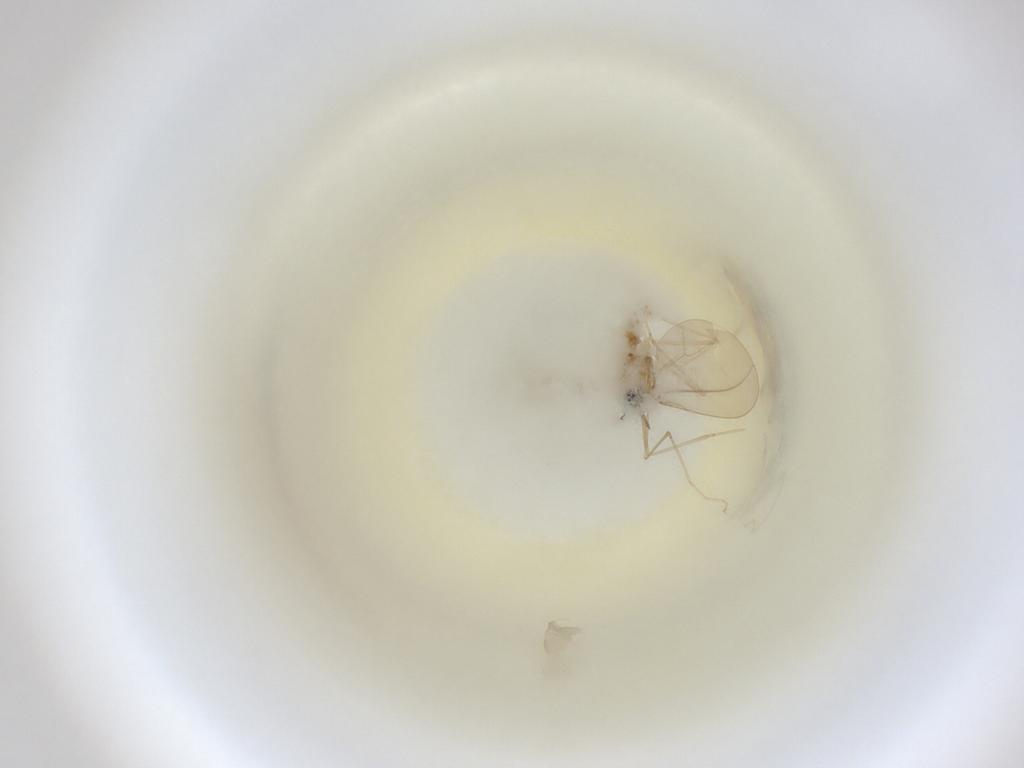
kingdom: Animalia
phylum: Arthropoda
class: Insecta
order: Diptera
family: Cecidomyiidae
